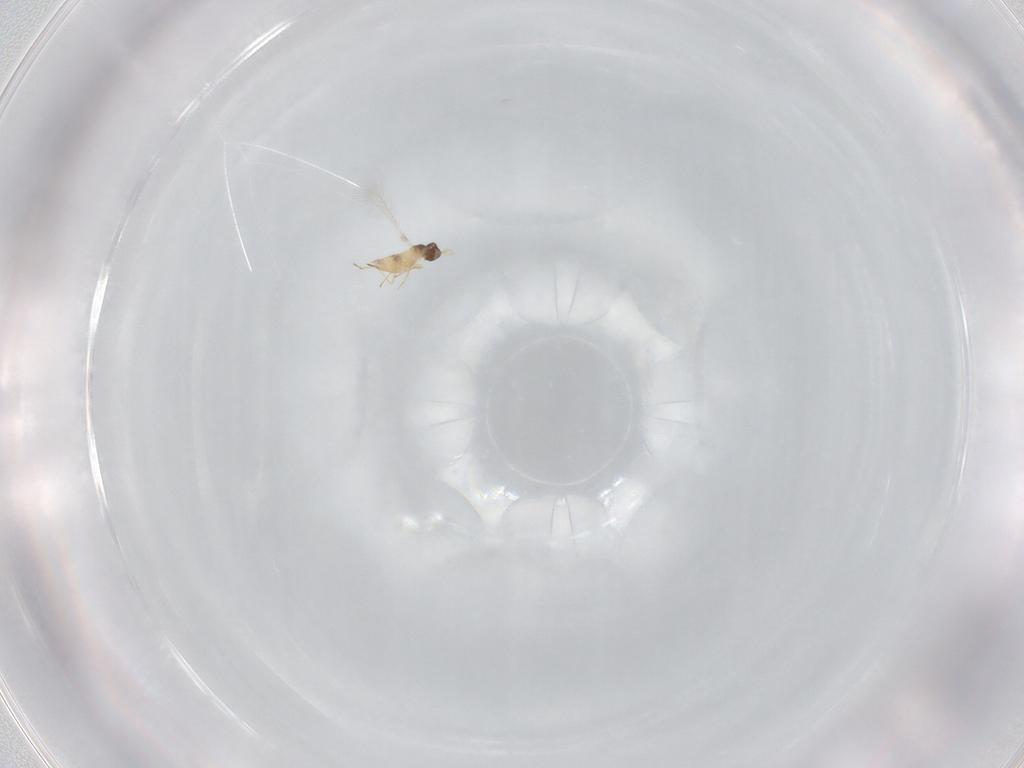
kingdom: Animalia
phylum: Arthropoda
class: Insecta
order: Hymenoptera
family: Mymaridae
